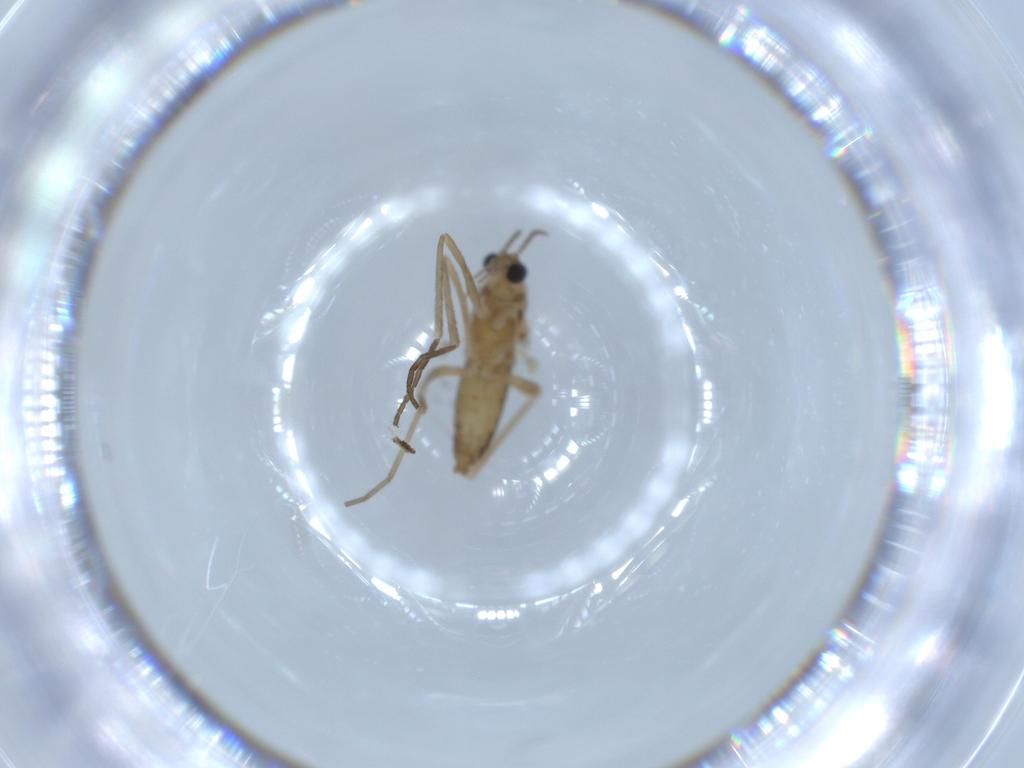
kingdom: Animalia
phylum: Arthropoda
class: Insecta
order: Diptera
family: Cecidomyiidae
